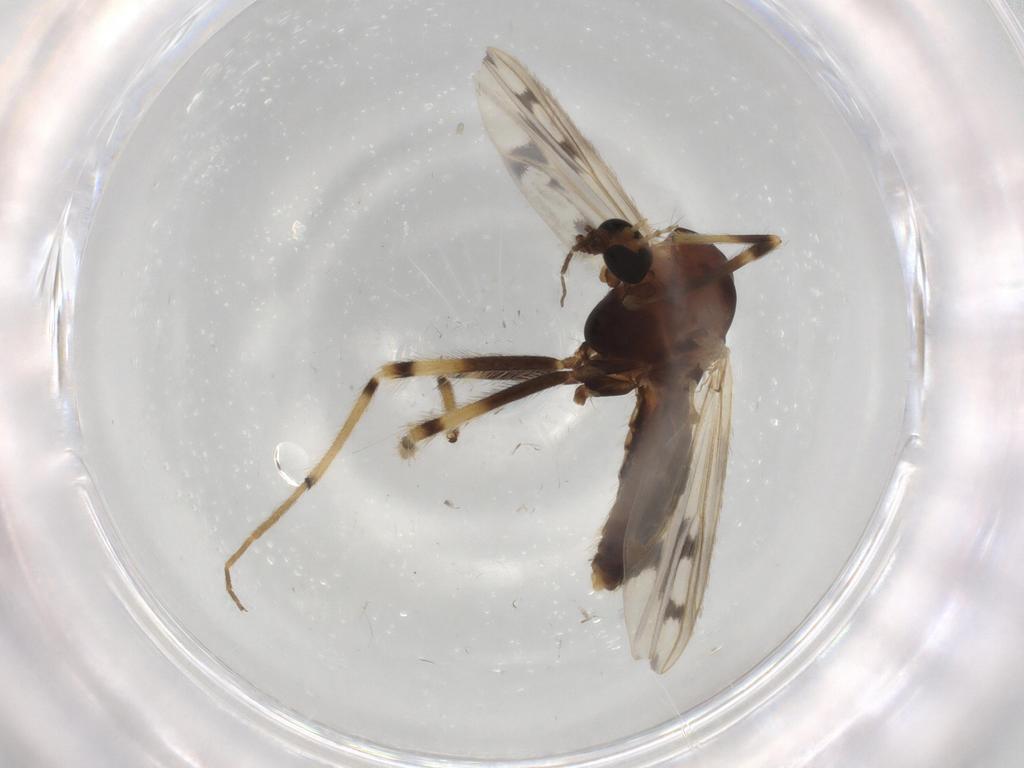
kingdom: Animalia
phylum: Arthropoda
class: Insecta
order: Diptera
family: Chironomidae
